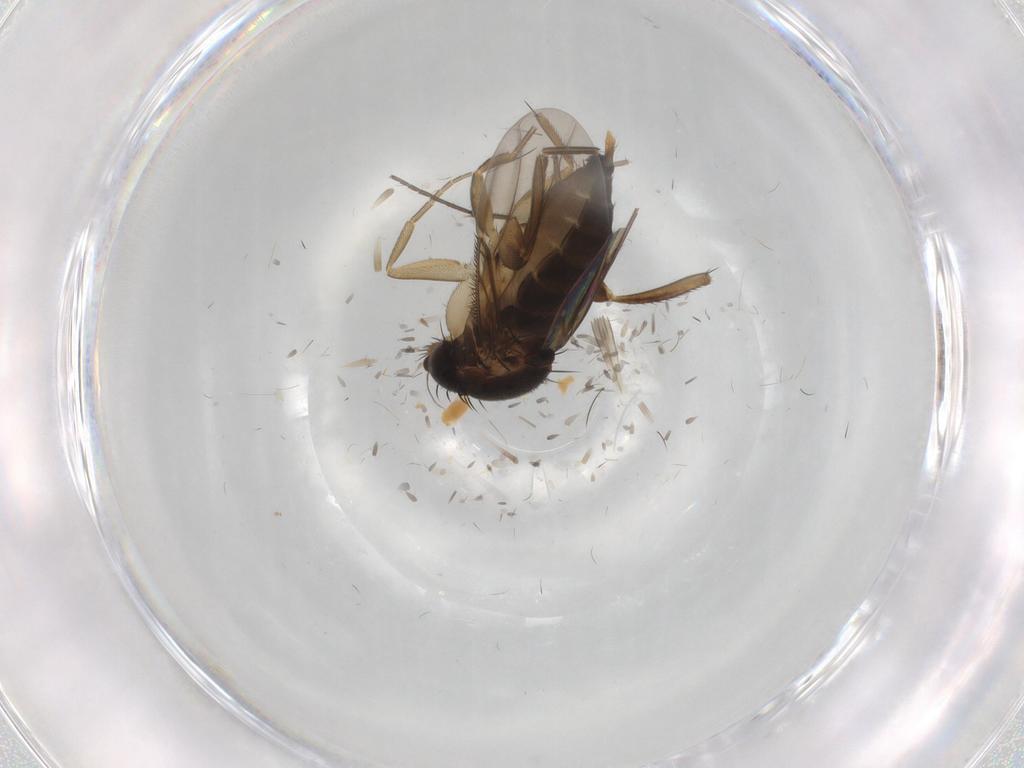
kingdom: Animalia
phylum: Arthropoda
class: Insecta
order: Diptera
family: Phoridae
